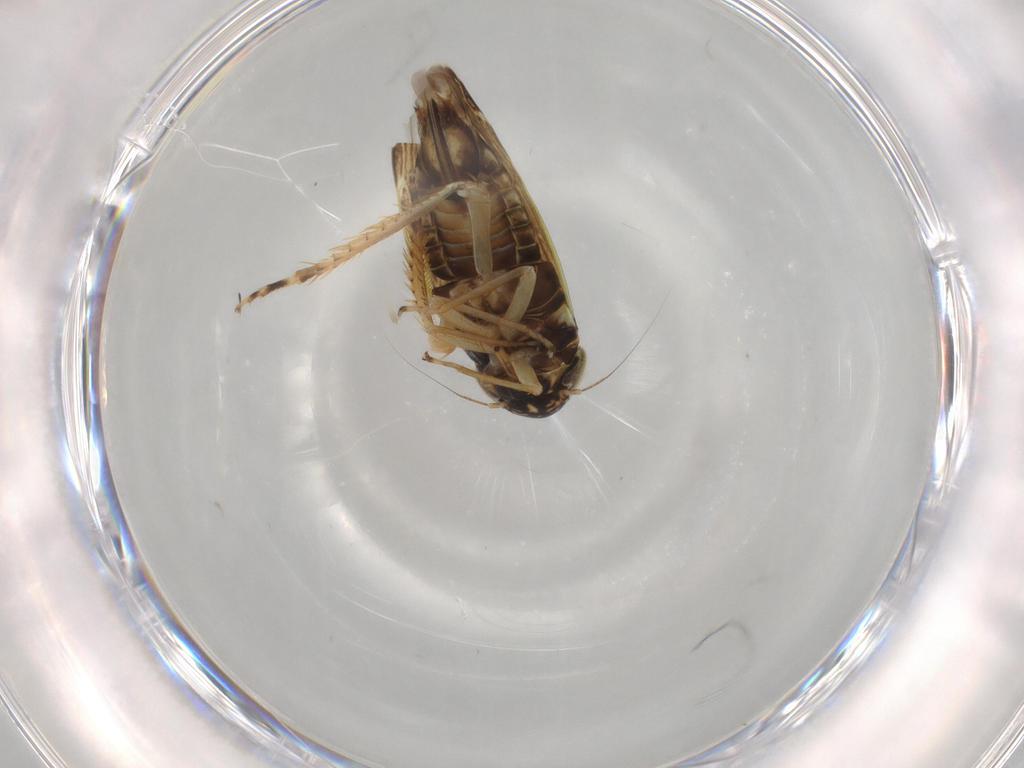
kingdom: Animalia
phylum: Arthropoda
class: Insecta
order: Hemiptera
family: Cicadellidae
